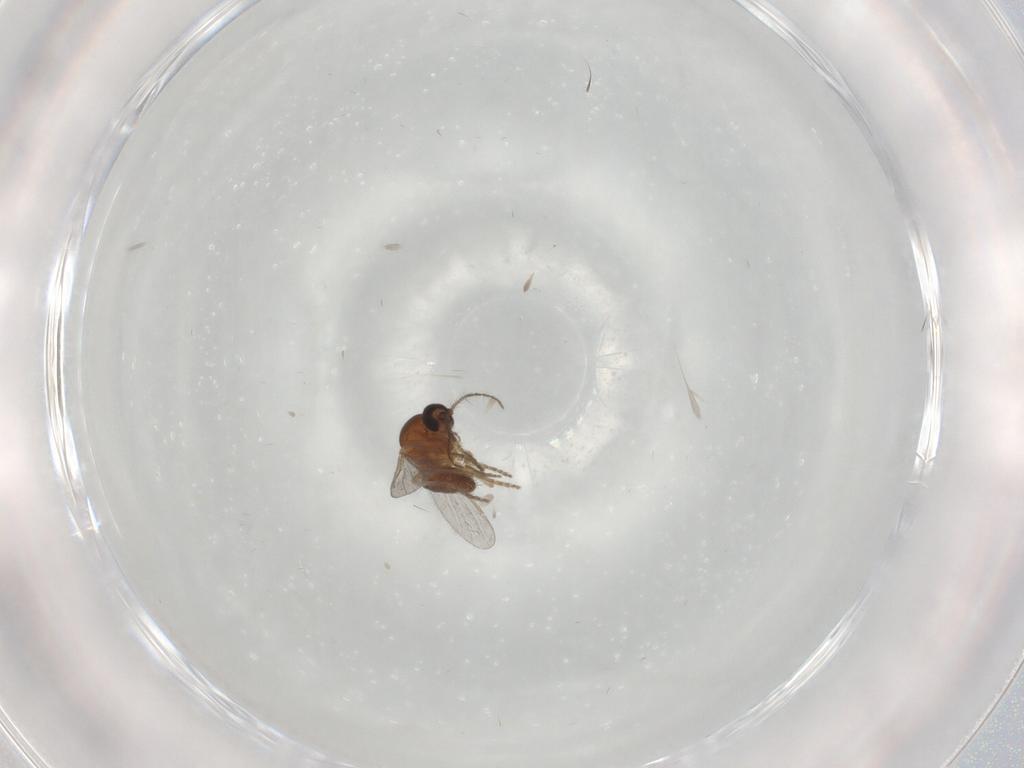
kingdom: Animalia
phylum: Arthropoda
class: Insecta
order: Diptera
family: Ceratopogonidae
